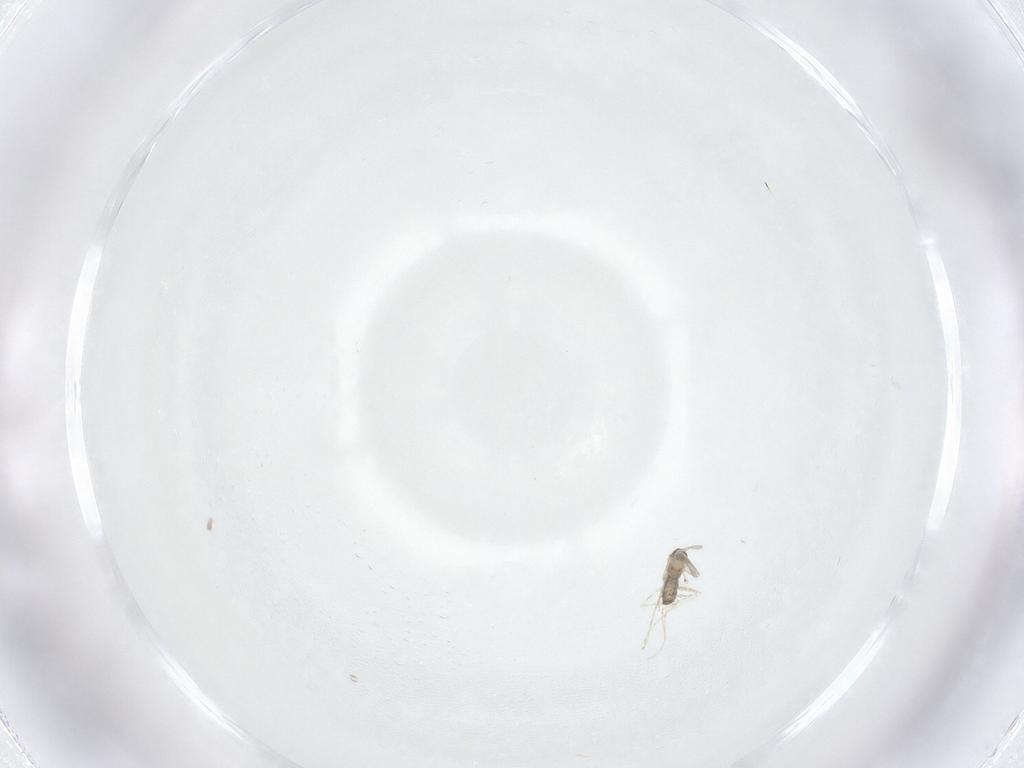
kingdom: Animalia
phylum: Arthropoda
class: Insecta
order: Diptera
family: Cecidomyiidae
